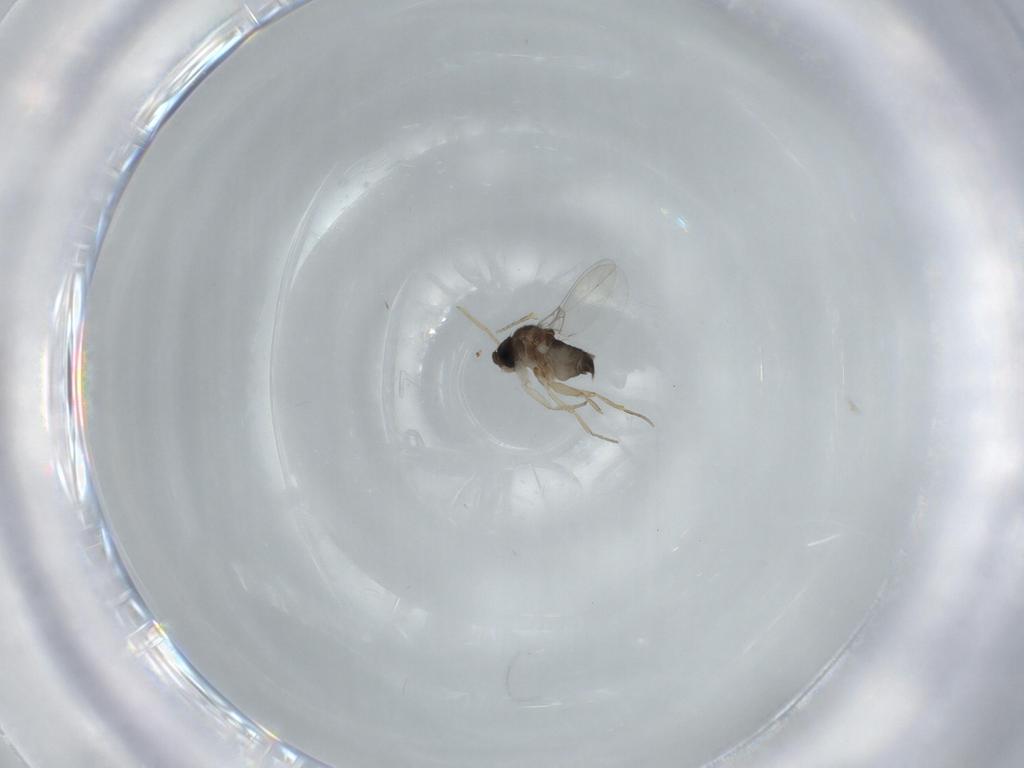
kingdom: Animalia
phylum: Arthropoda
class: Insecta
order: Diptera
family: Phoridae
